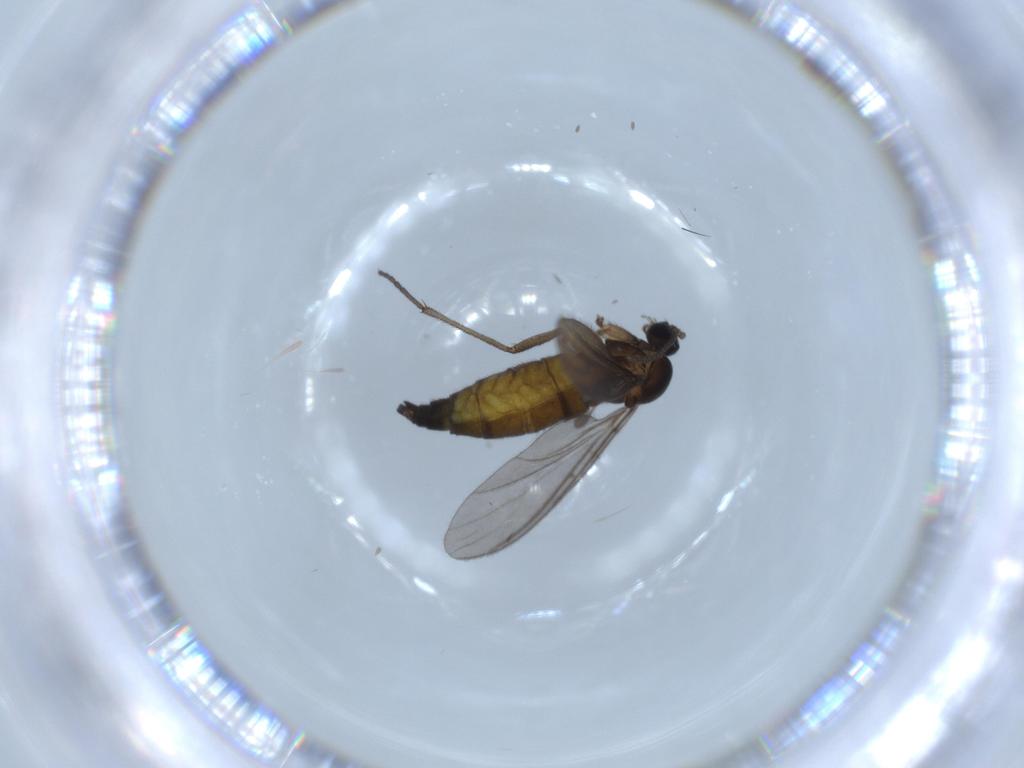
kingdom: Animalia
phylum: Arthropoda
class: Insecta
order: Diptera
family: Sciaridae
